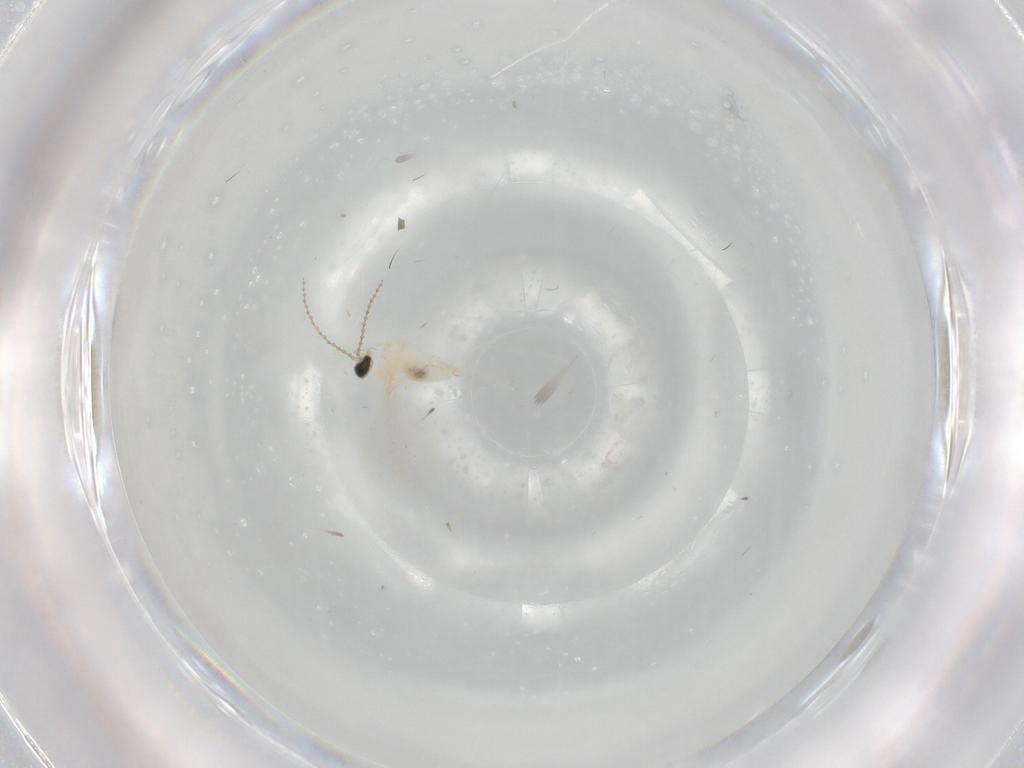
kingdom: Animalia
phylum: Arthropoda
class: Insecta
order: Diptera
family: Cecidomyiidae
